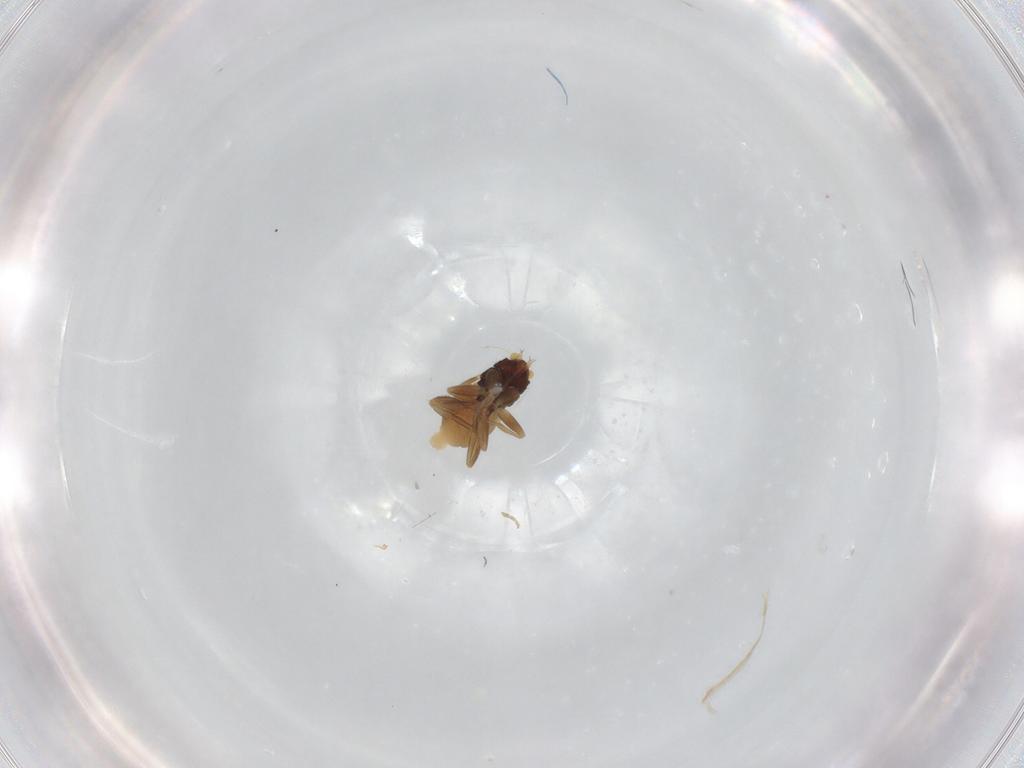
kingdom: Animalia
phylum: Arthropoda
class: Insecta
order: Diptera
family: Phoridae
